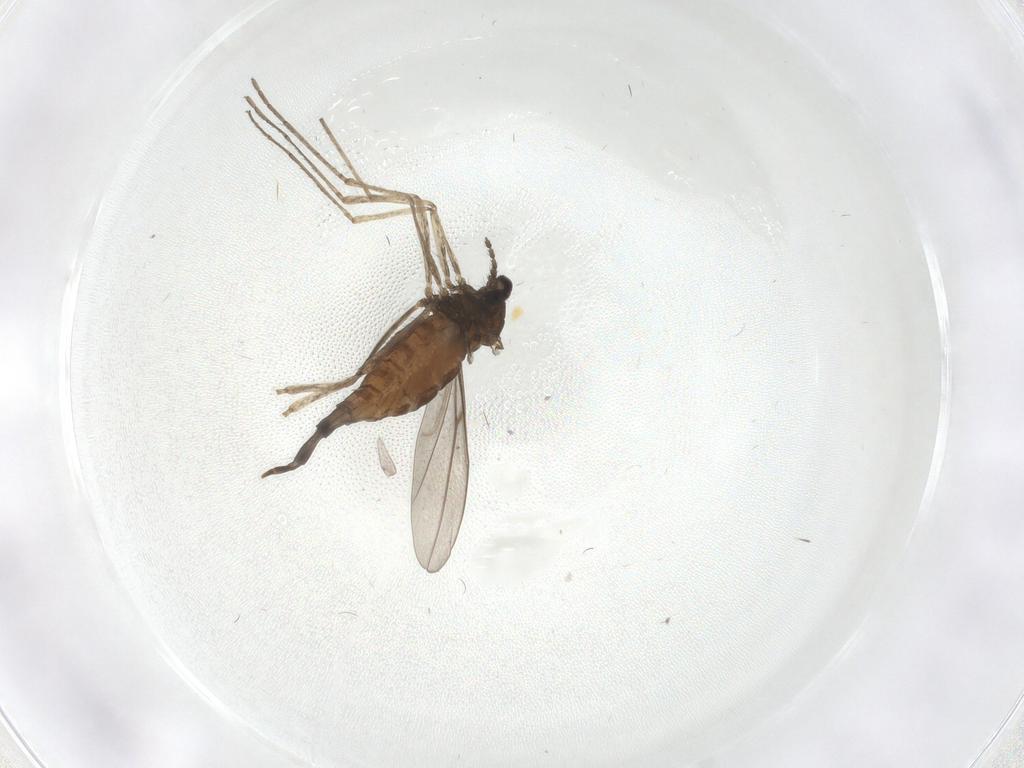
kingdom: Animalia
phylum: Arthropoda
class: Insecta
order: Diptera
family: Cecidomyiidae
